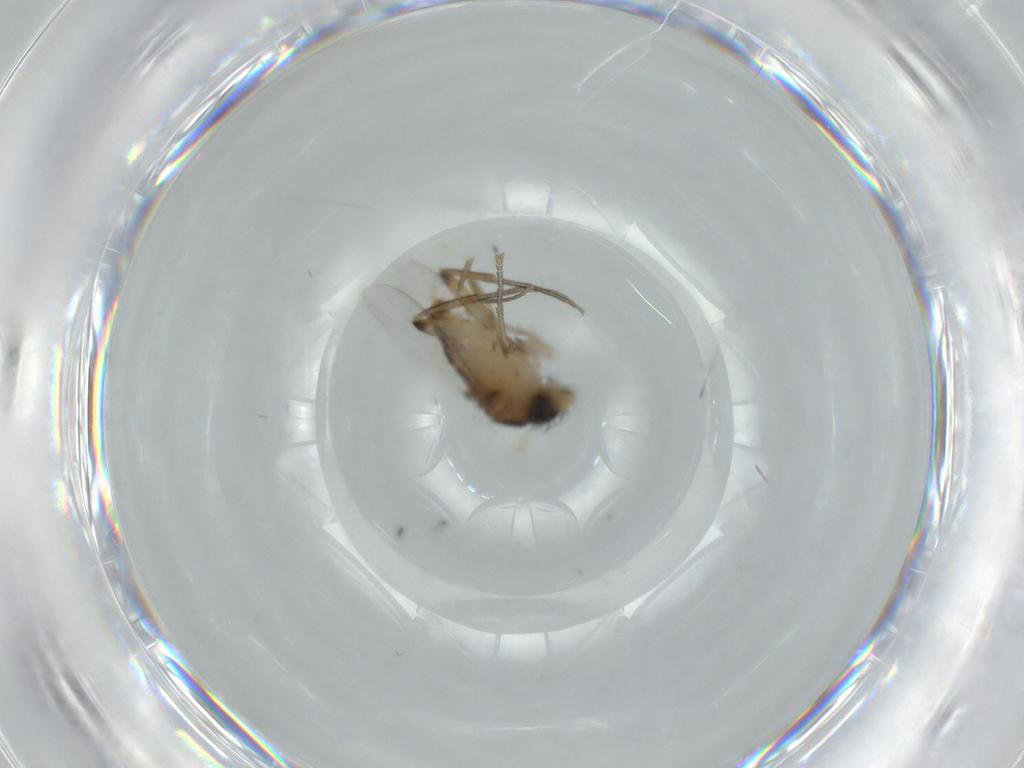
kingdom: Animalia
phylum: Arthropoda
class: Insecta
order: Diptera
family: Phoridae
